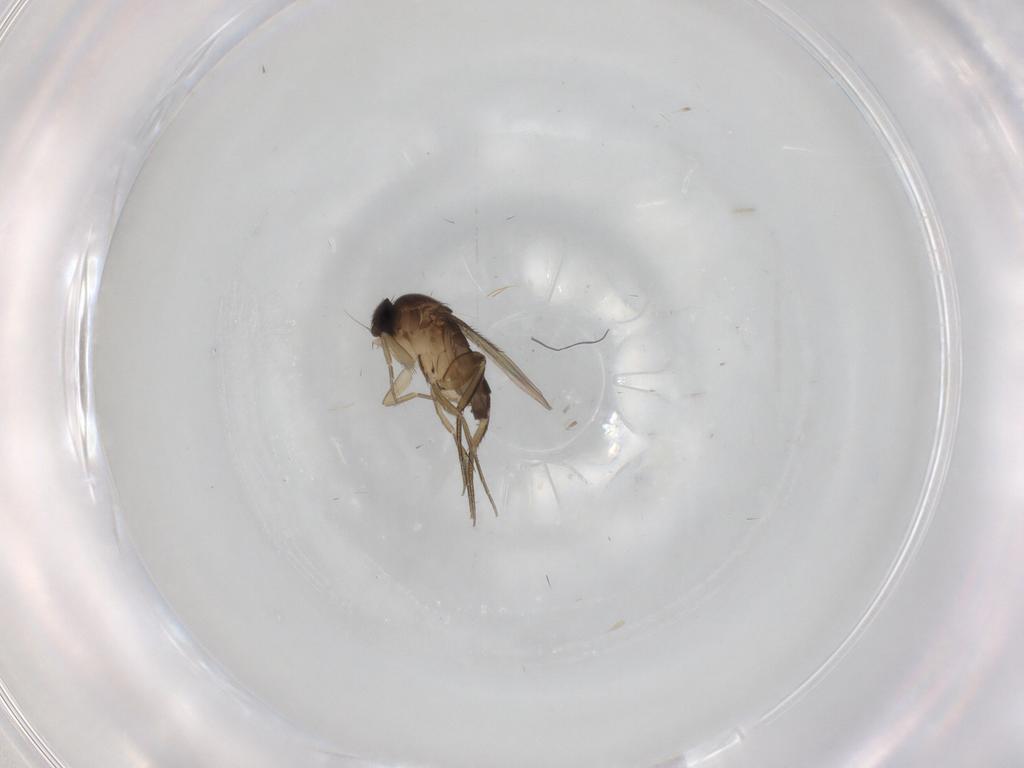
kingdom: Animalia
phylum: Arthropoda
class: Insecta
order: Diptera
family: Phoridae
